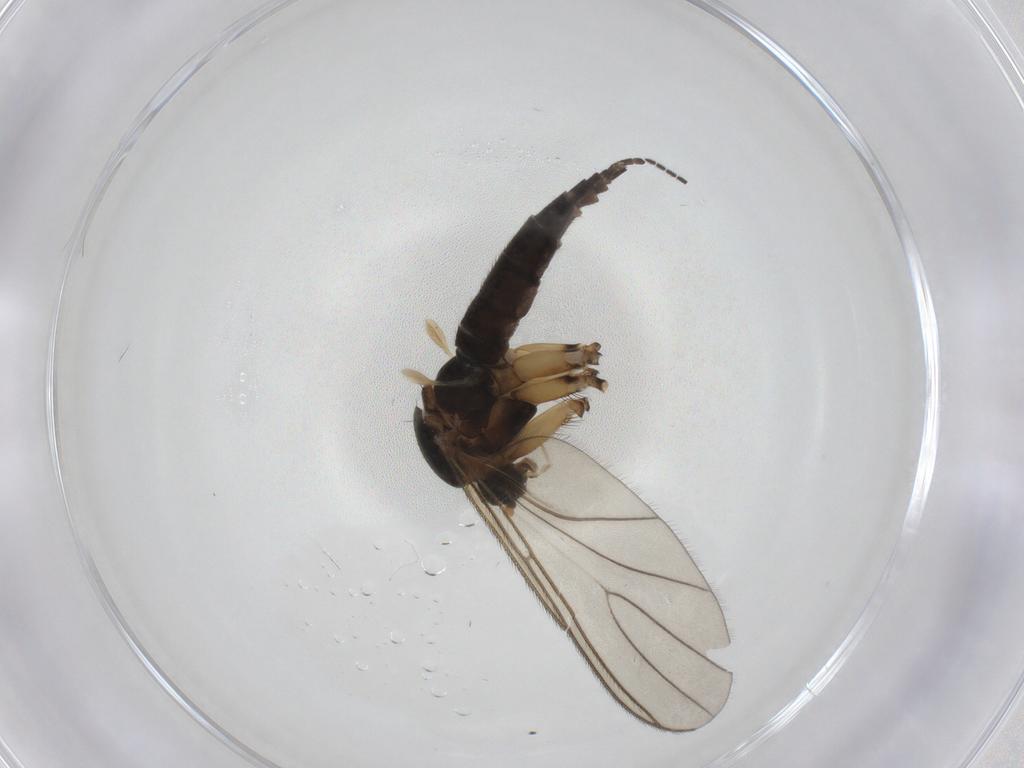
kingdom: Animalia
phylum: Arthropoda
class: Insecta
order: Diptera
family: Sciaridae
